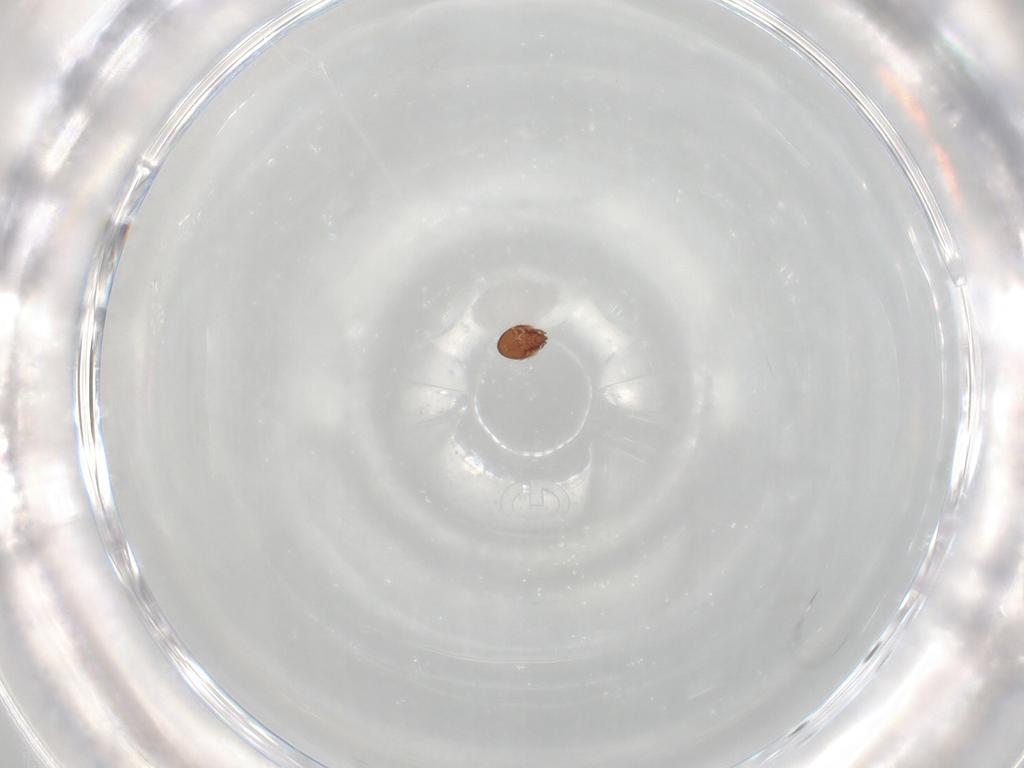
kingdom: Animalia
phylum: Arthropoda
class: Arachnida
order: Sarcoptiformes
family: Scheloribatidae
